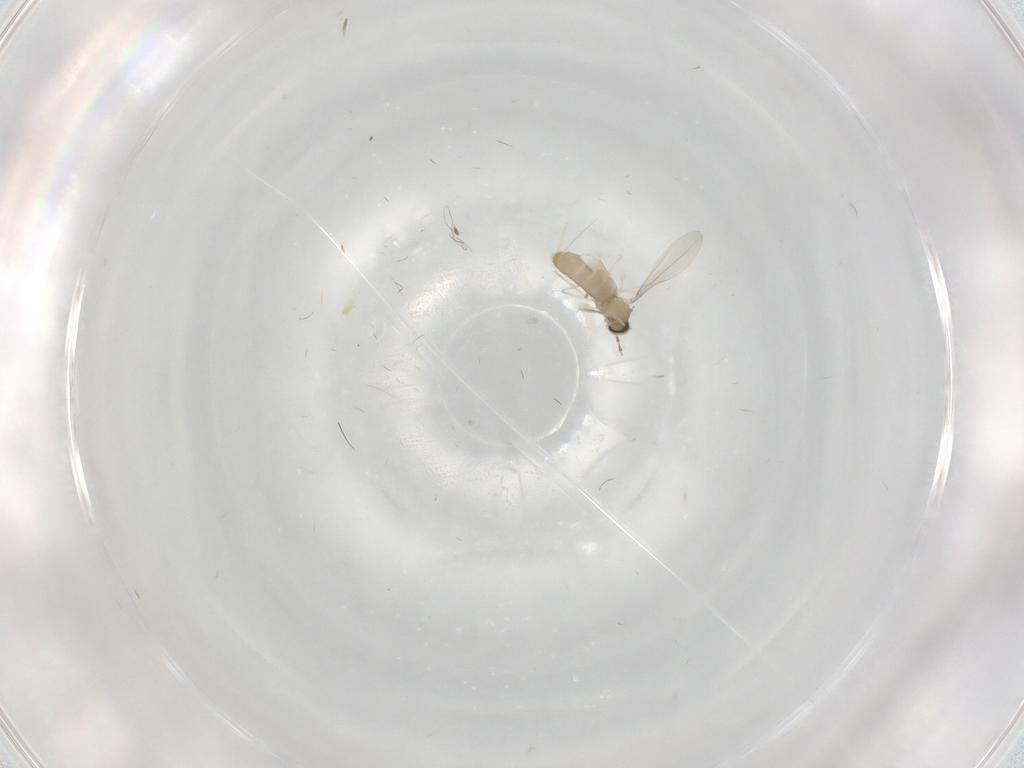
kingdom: Animalia
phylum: Arthropoda
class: Insecta
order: Diptera
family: Cecidomyiidae
